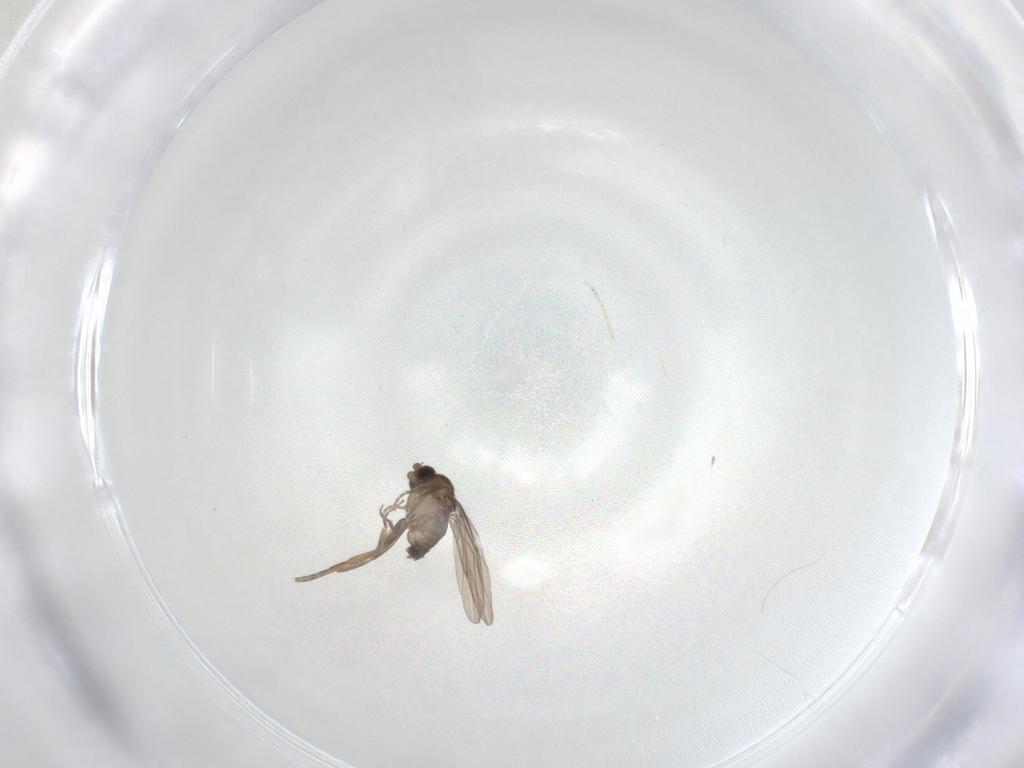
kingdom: Animalia
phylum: Arthropoda
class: Insecta
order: Diptera
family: Phoridae
